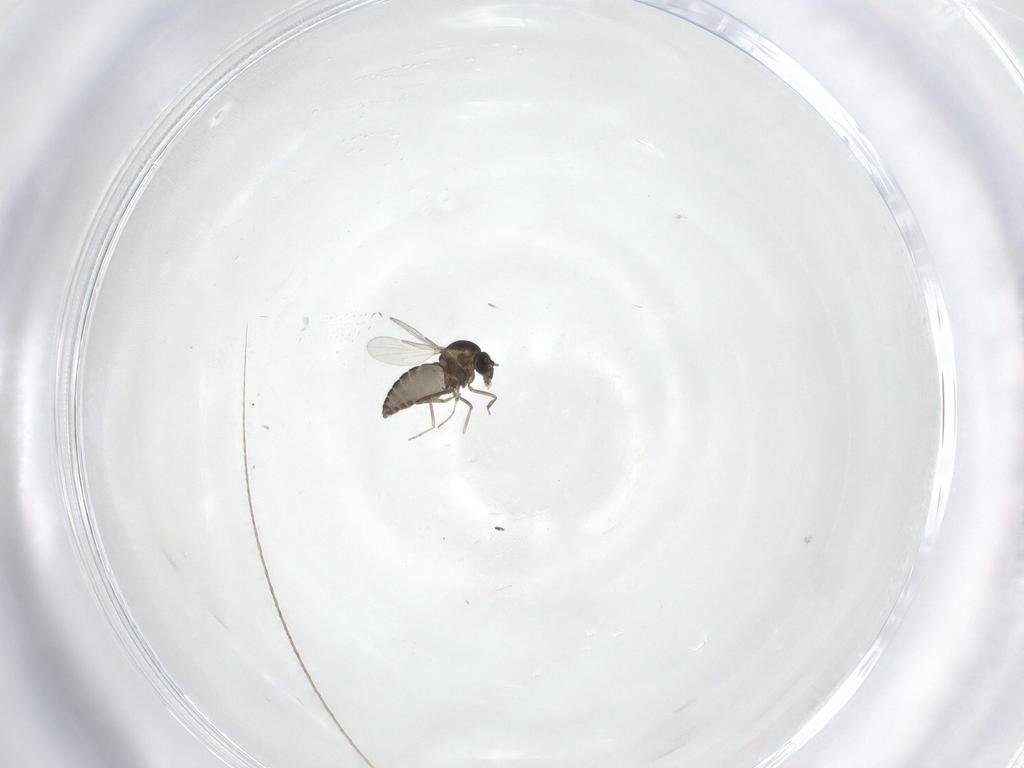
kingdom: Animalia
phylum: Arthropoda
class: Insecta
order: Diptera
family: Ceratopogonidae
